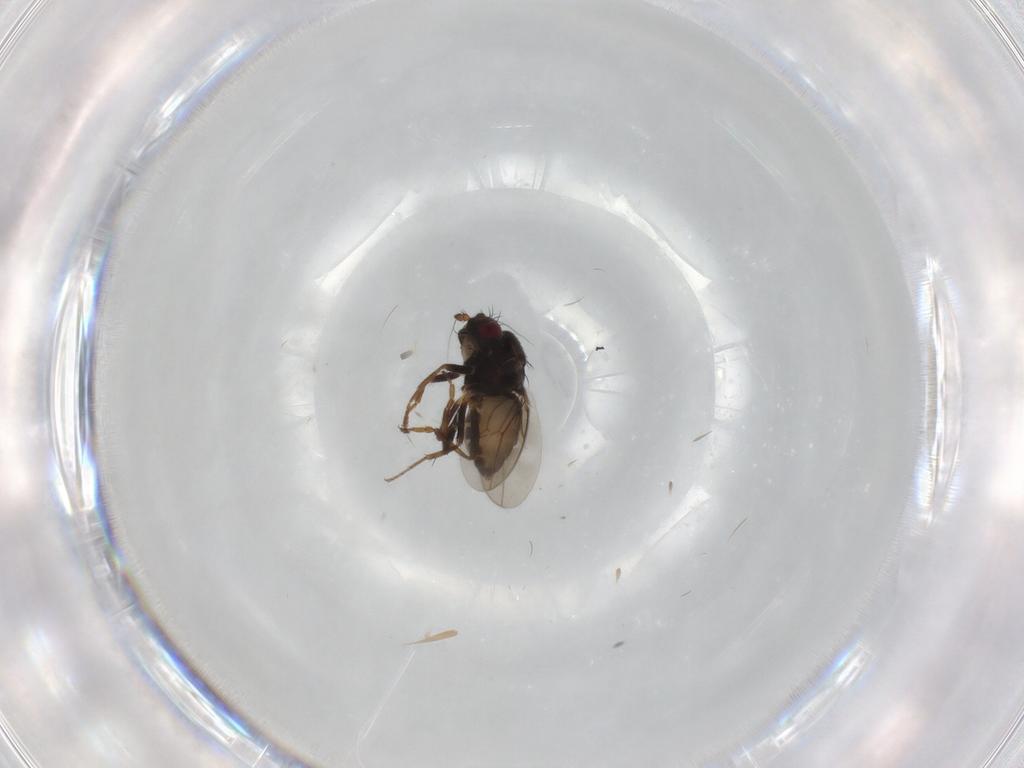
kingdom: Animalia
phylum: Arthropoda
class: Insecta
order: Diptera
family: Sphaeroceridae
